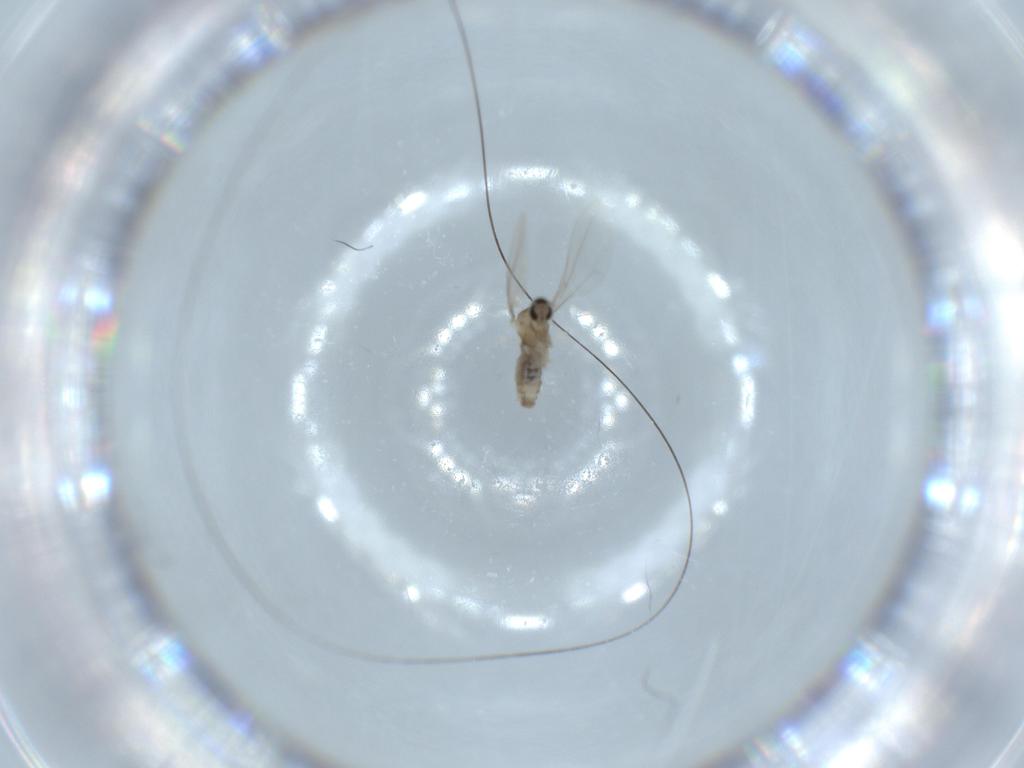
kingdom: Animalia
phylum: Arthropoda
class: Insecta
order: Diptera
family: Cecidomyiidae
